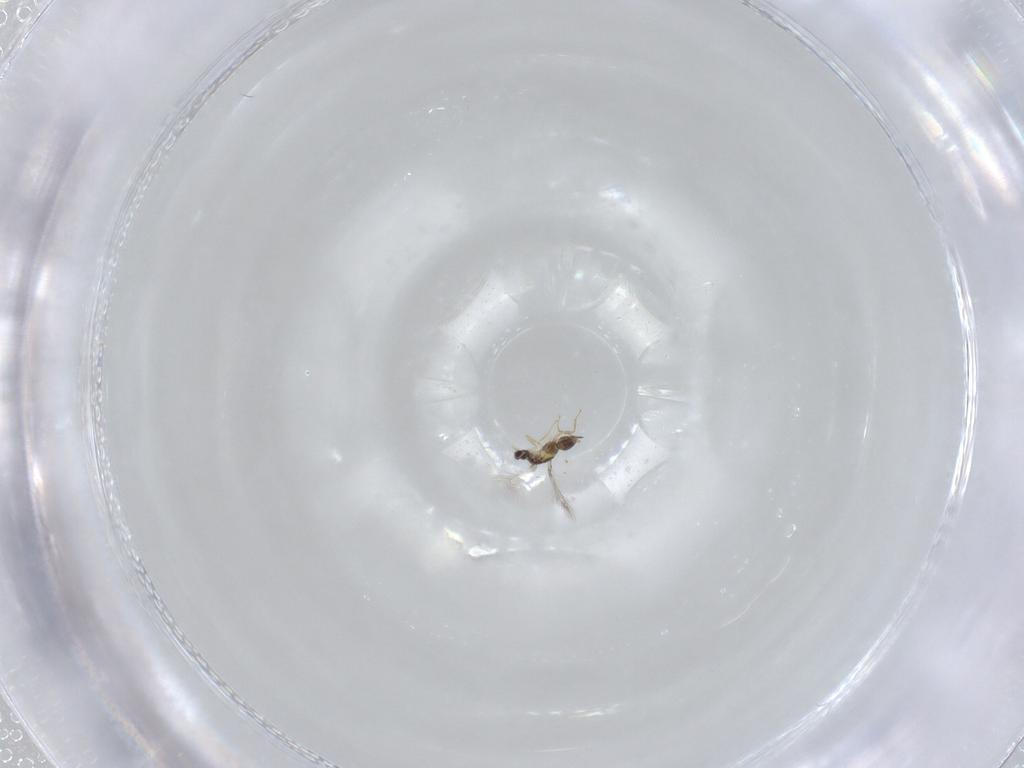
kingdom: Animalia
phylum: Arthropoda
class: Insecta
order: Hymenoptera
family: Mymaridae
